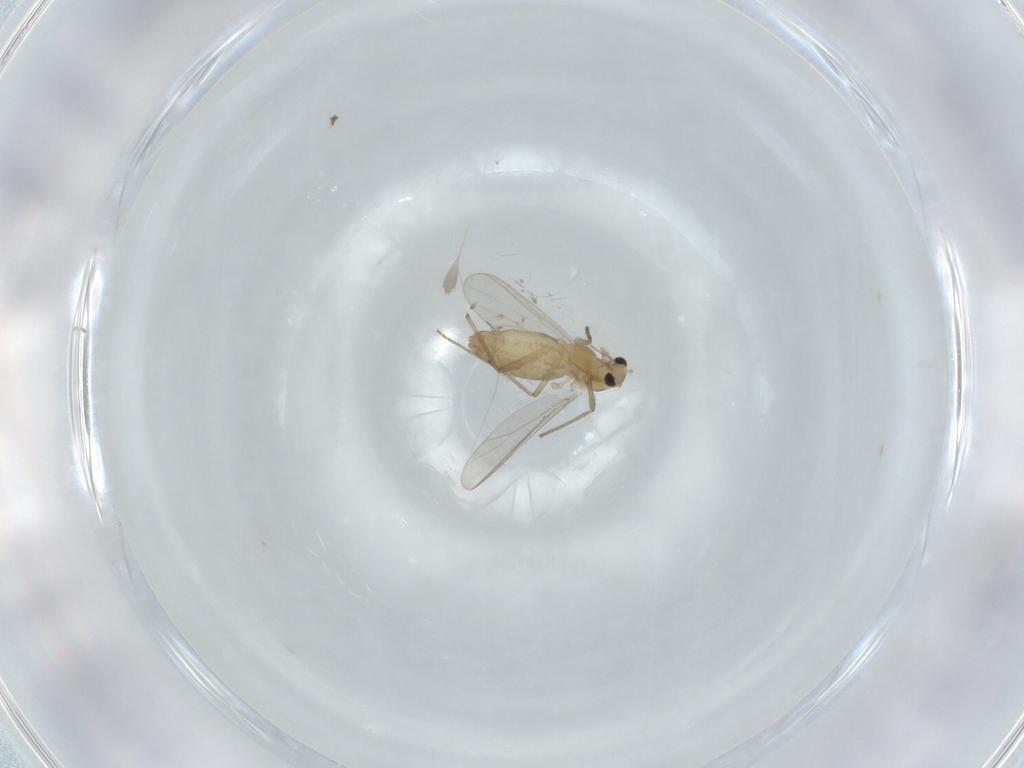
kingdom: Animalia
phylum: Arthropoda
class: Insecta
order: Diptera
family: Chironomidae
